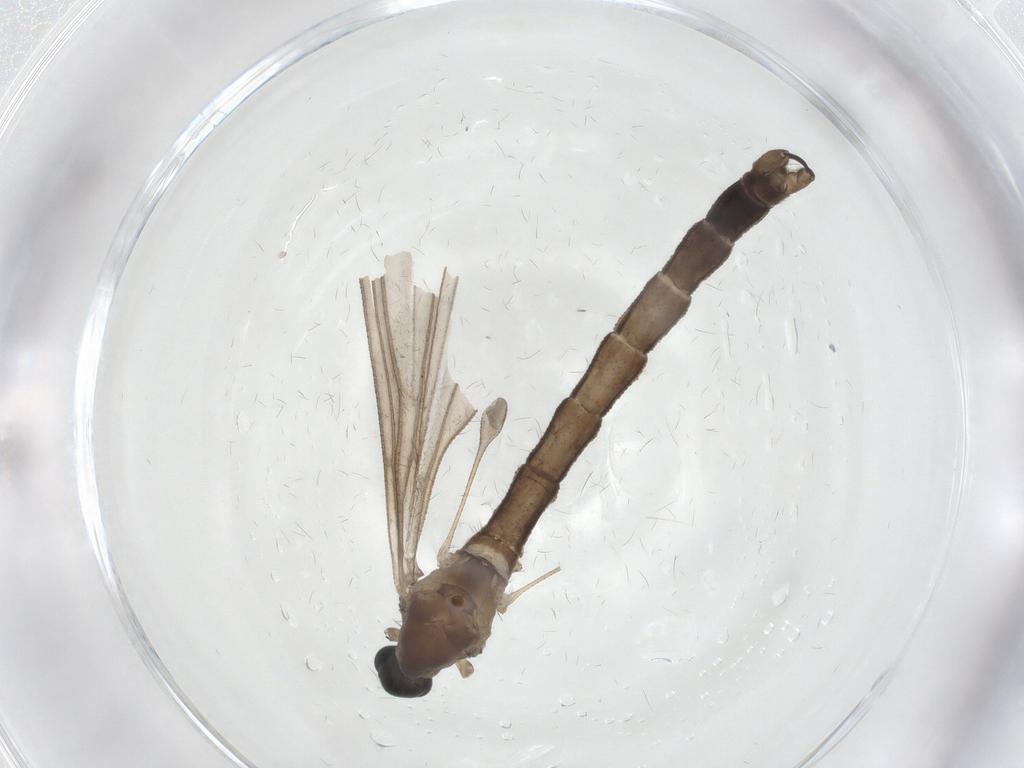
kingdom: Animalia
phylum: Arthropoda
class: Insecta
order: Diptera
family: Limoniidae
